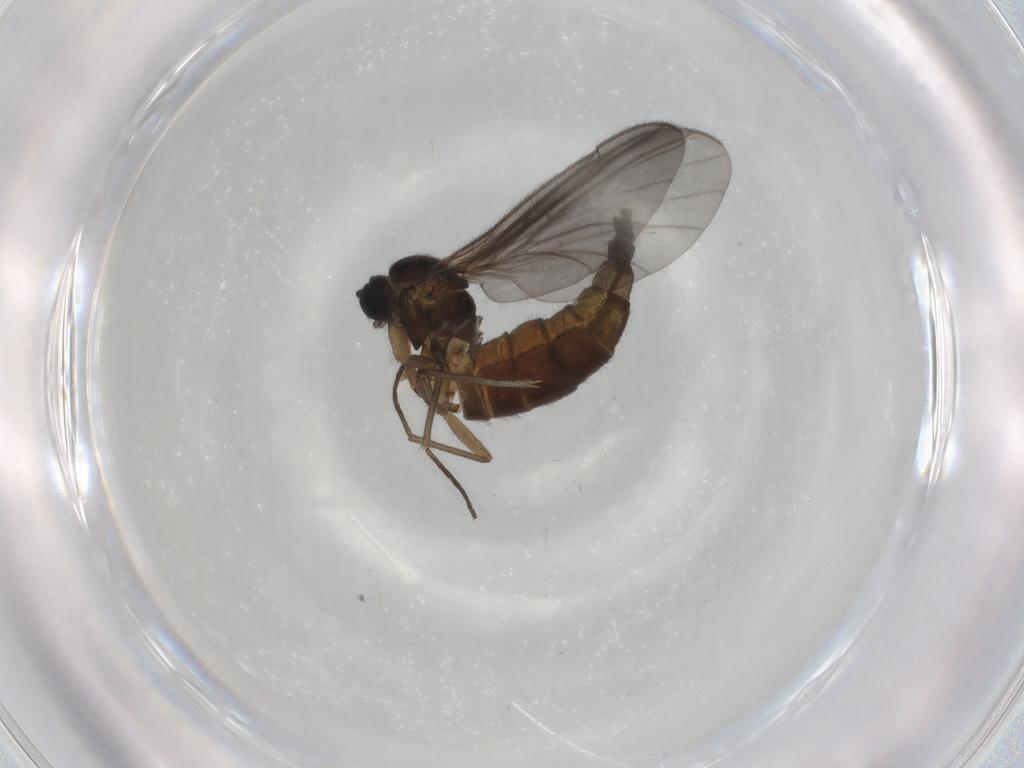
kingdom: Animalia
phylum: Arthropoda
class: Insecta
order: Diptera
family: Sciaridae
